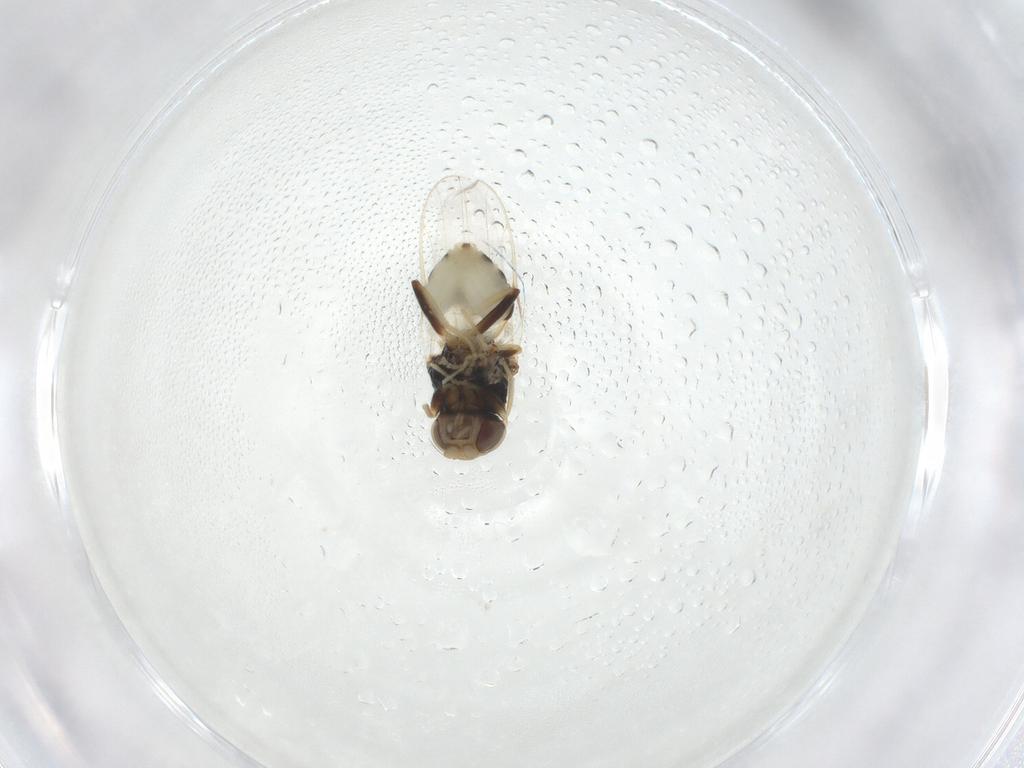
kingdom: Animalia
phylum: Arthropoda
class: Insecta
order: Diptera
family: Chloropidae
